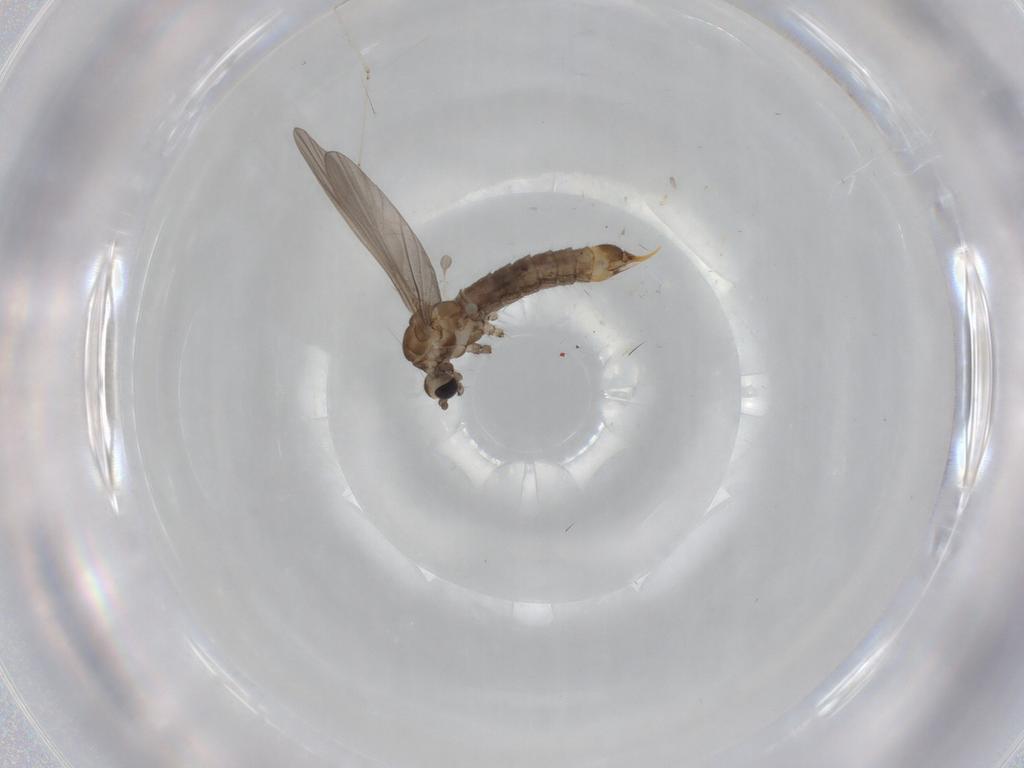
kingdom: Animalia
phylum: Arthropoda
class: Insecta
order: Diptera
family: Limoniidae
